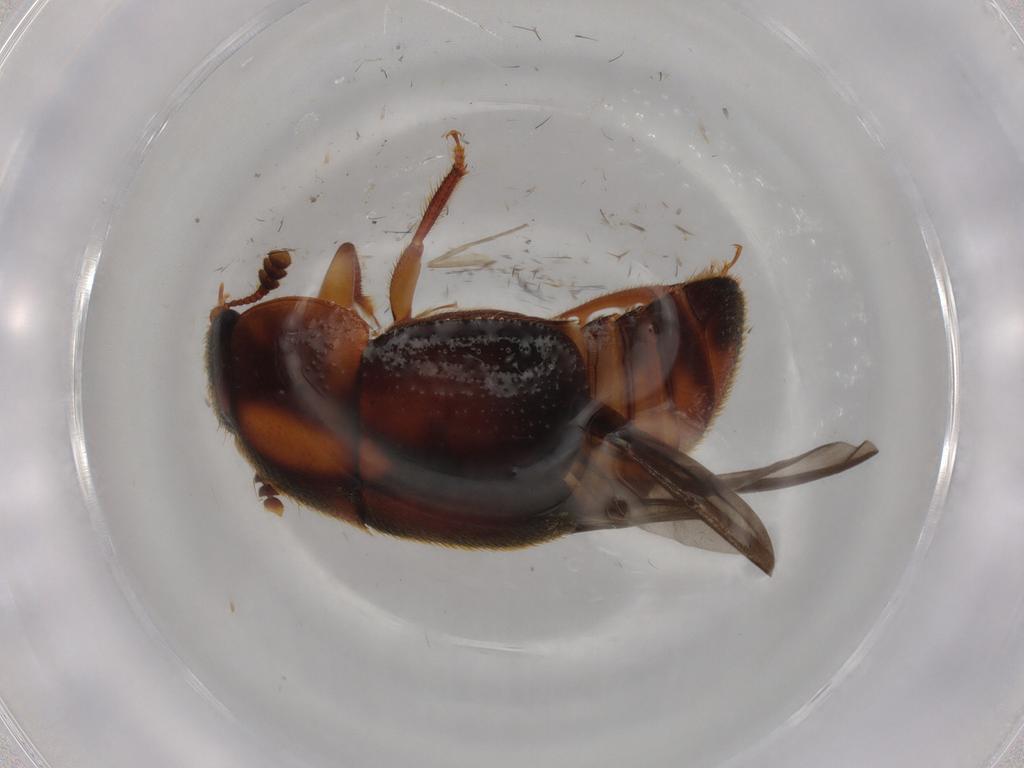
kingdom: Animalia
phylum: Arthropoda
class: Insecta
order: Coleoptera
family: Nitidulidae
